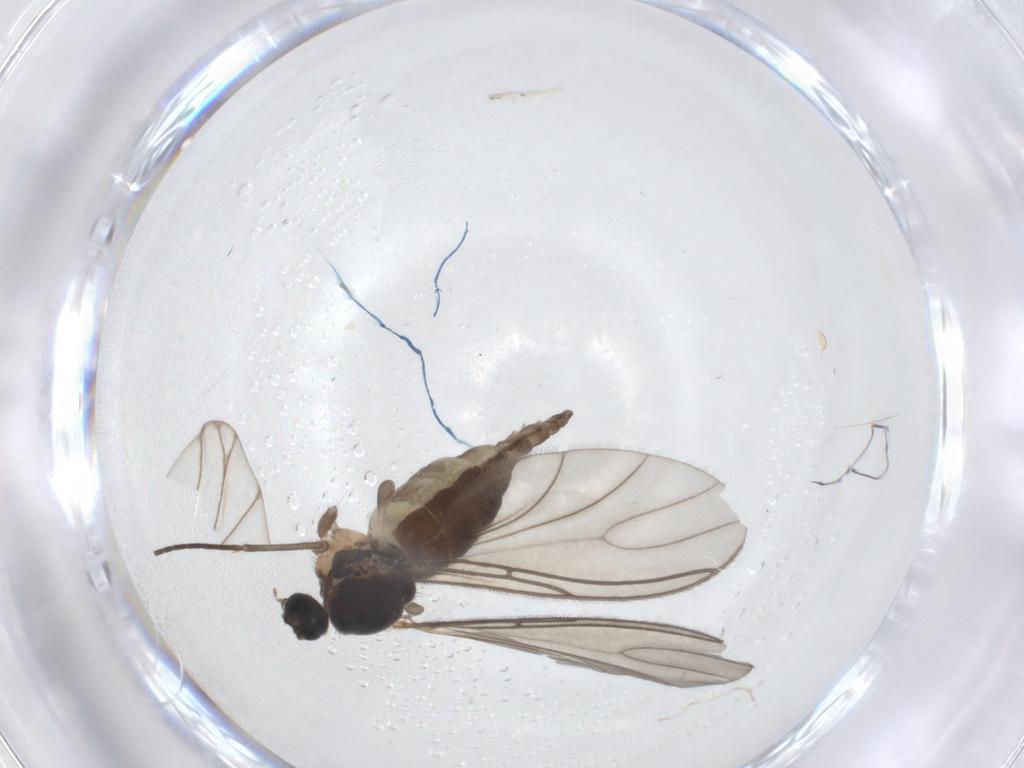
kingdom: Animalia
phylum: Arthropoda
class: Insecta
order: Diptera
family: Sciaridae
